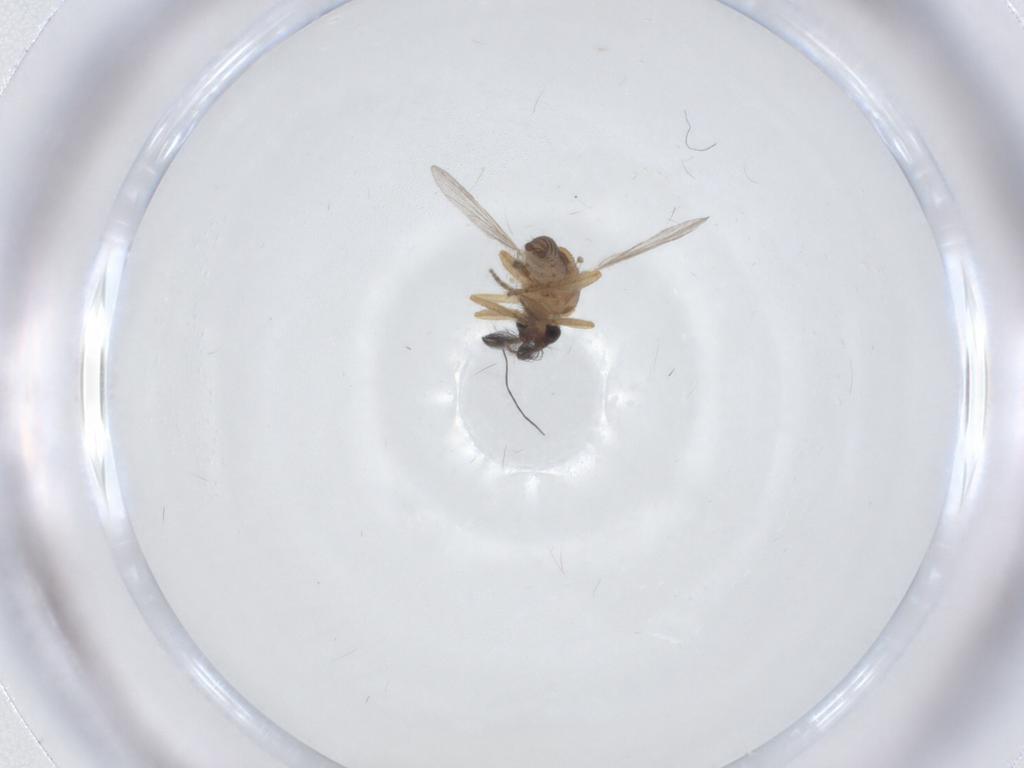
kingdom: Animalia
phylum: Arthropoda
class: Insecta
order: Diptera
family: Ceratopogonidae
